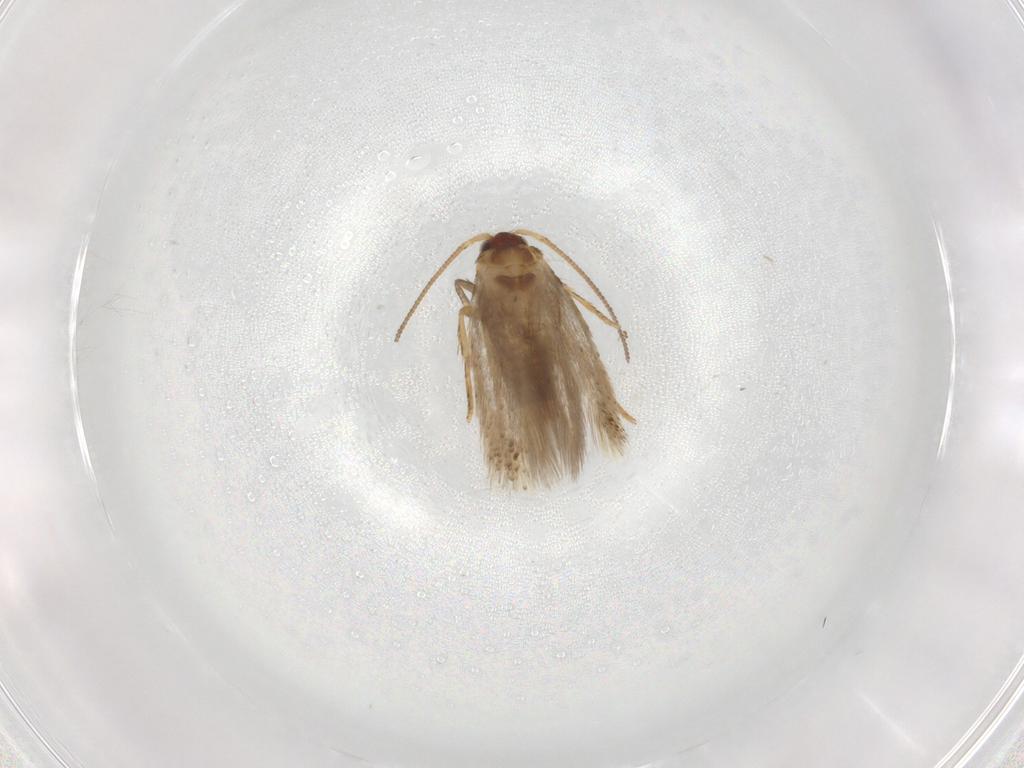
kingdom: Animalia
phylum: Arthropoda
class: Insecta
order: Lepidoptera
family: Nepticulidae
